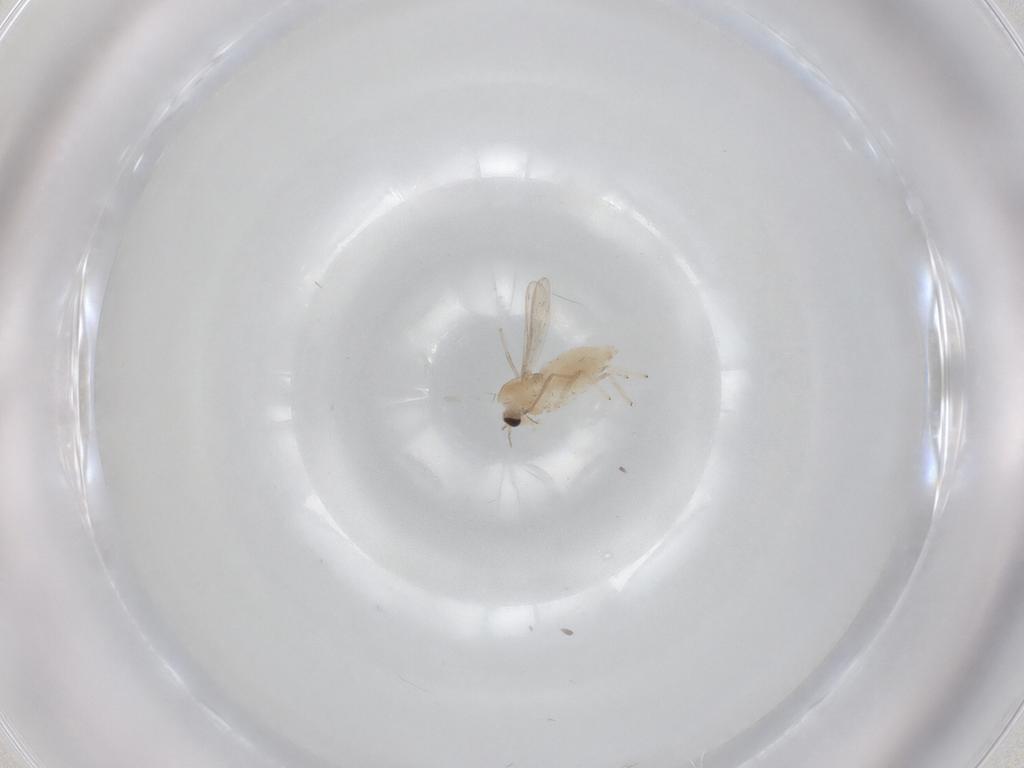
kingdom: Animalia
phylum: Arthropoda
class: Insecta
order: Diptera
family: Chironomidae
